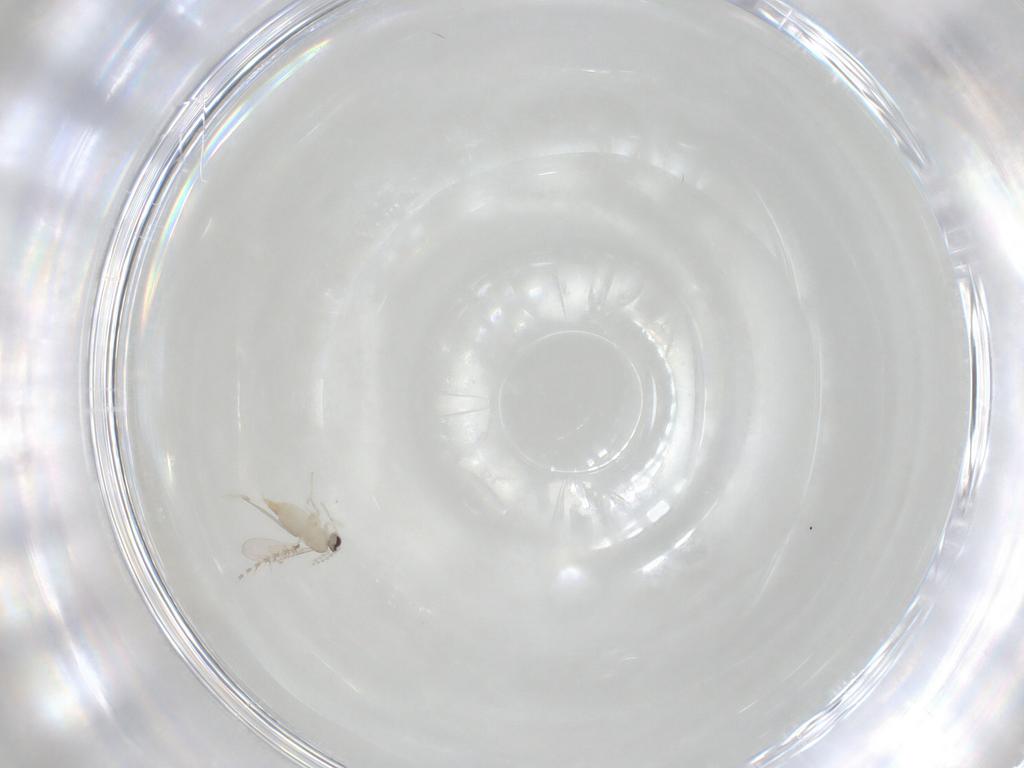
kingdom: Animalia
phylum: Arthropoda
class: Insecta
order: Diptera
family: Cecidomyiidae
